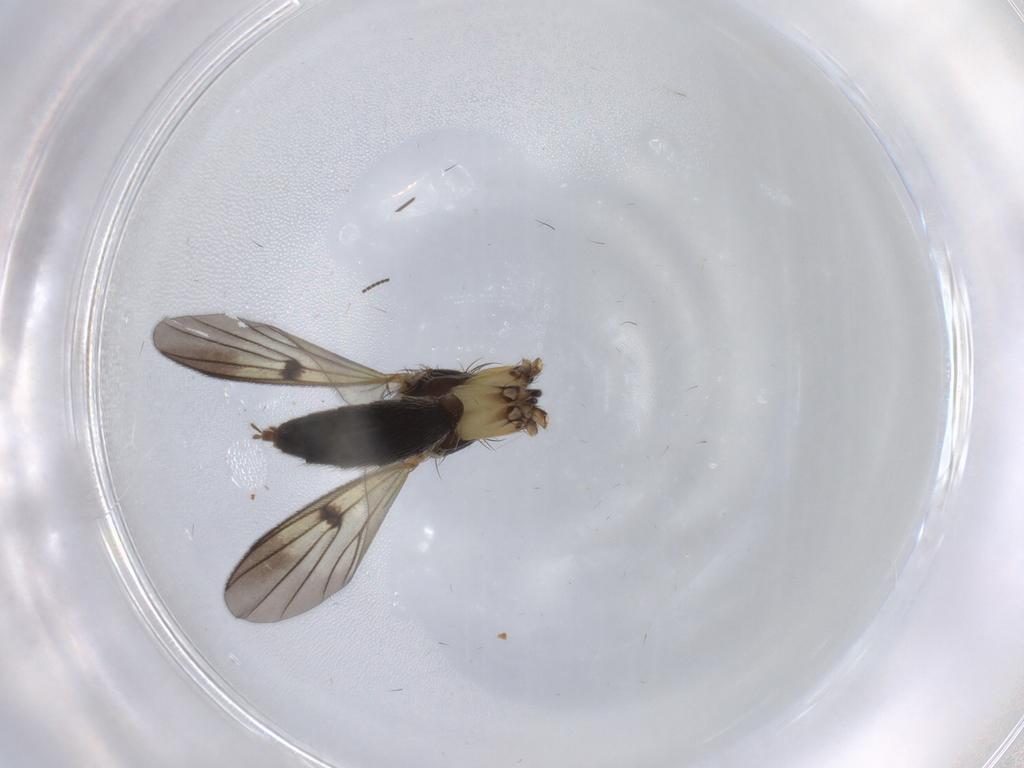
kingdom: Animalia
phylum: Arthropoda
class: Insecta
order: Diptera
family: Mycetophilidae
